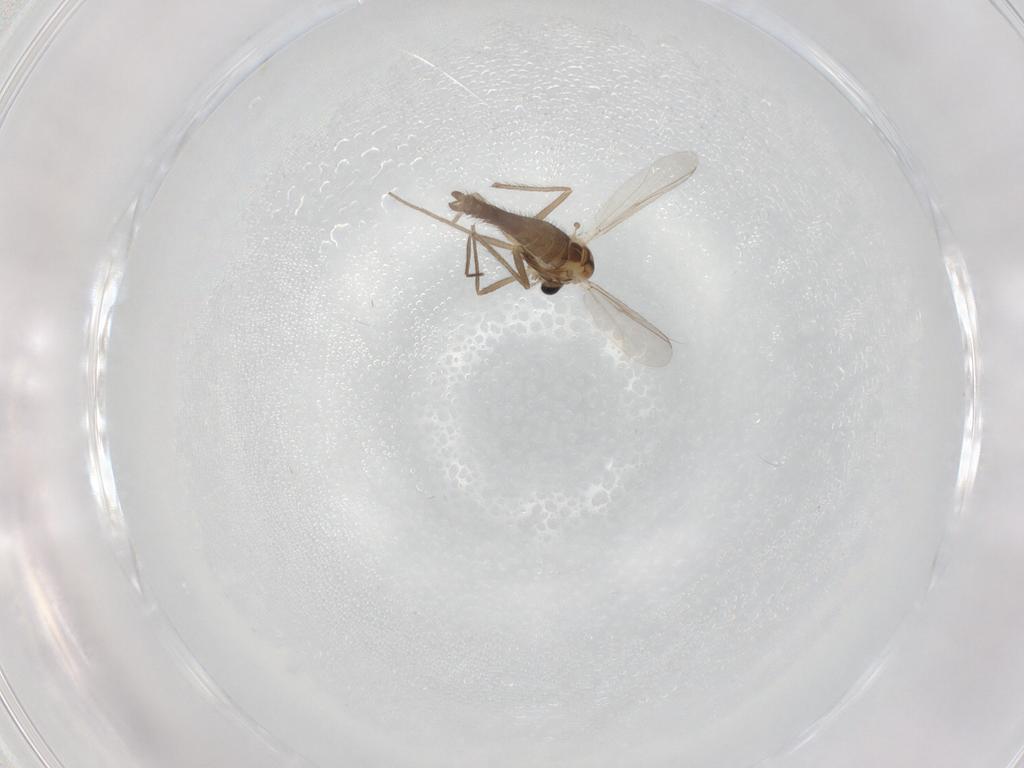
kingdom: Animalia
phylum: Arthropoda
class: Insecta
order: Diptera
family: Chironomidae
